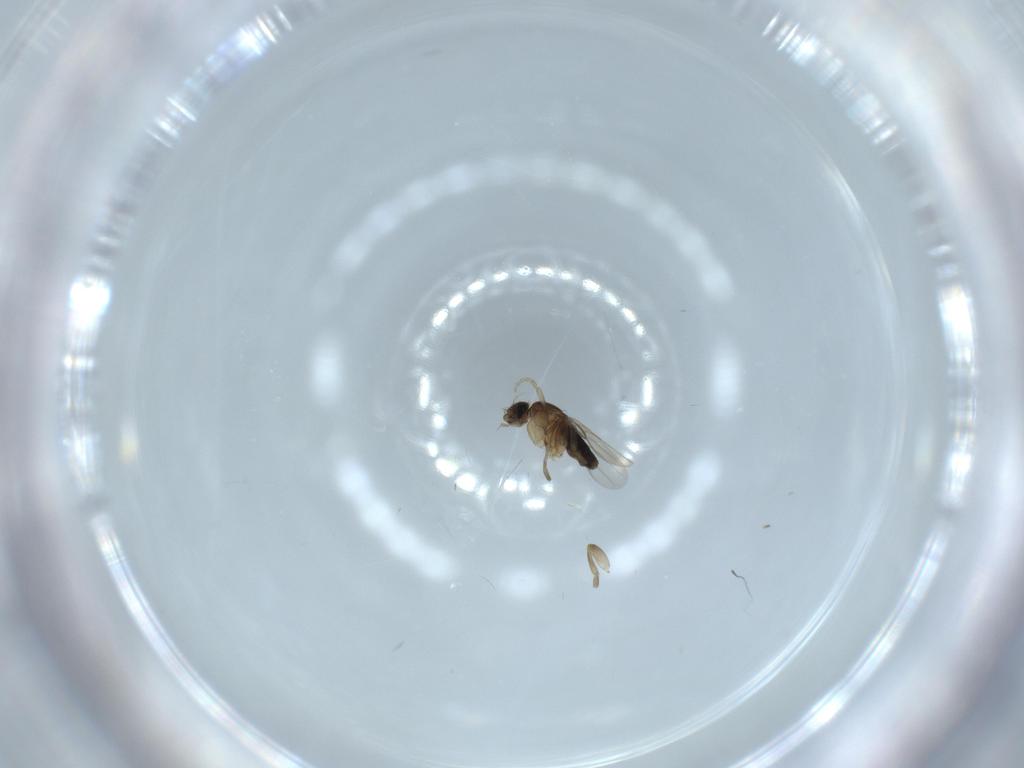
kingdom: Animalia
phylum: Arthropoda
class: Insecta
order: Diptera
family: Phoridae
